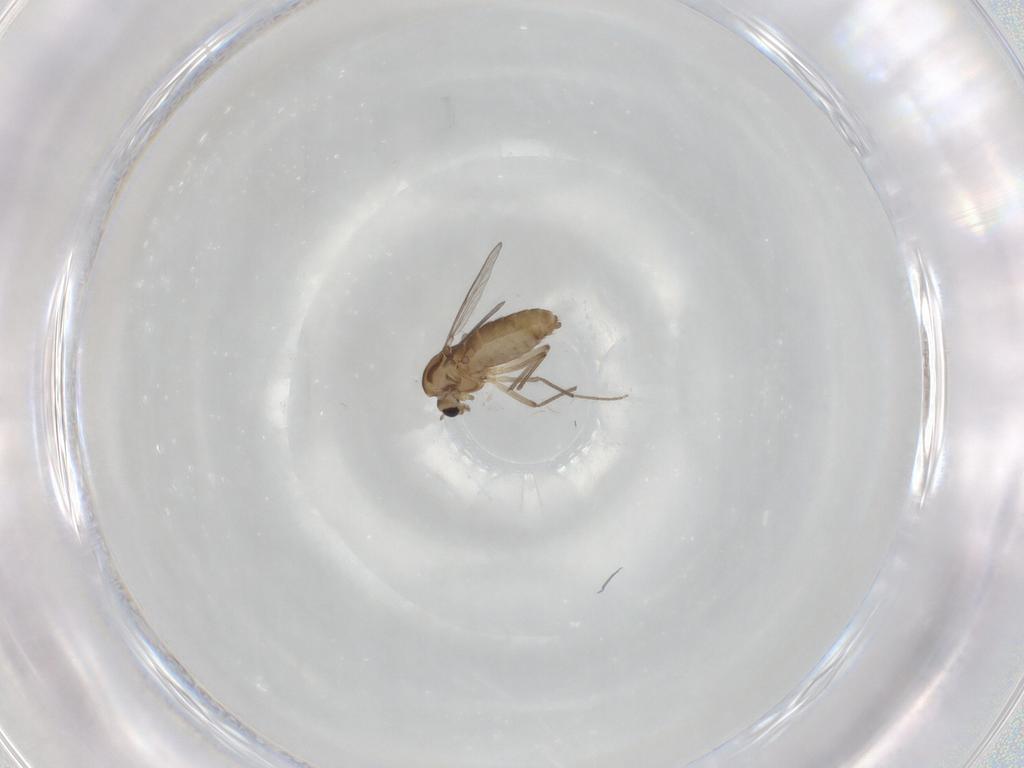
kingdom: Animalia
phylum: Arthropoda
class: Insecta
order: Diptera
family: Chironomidae
